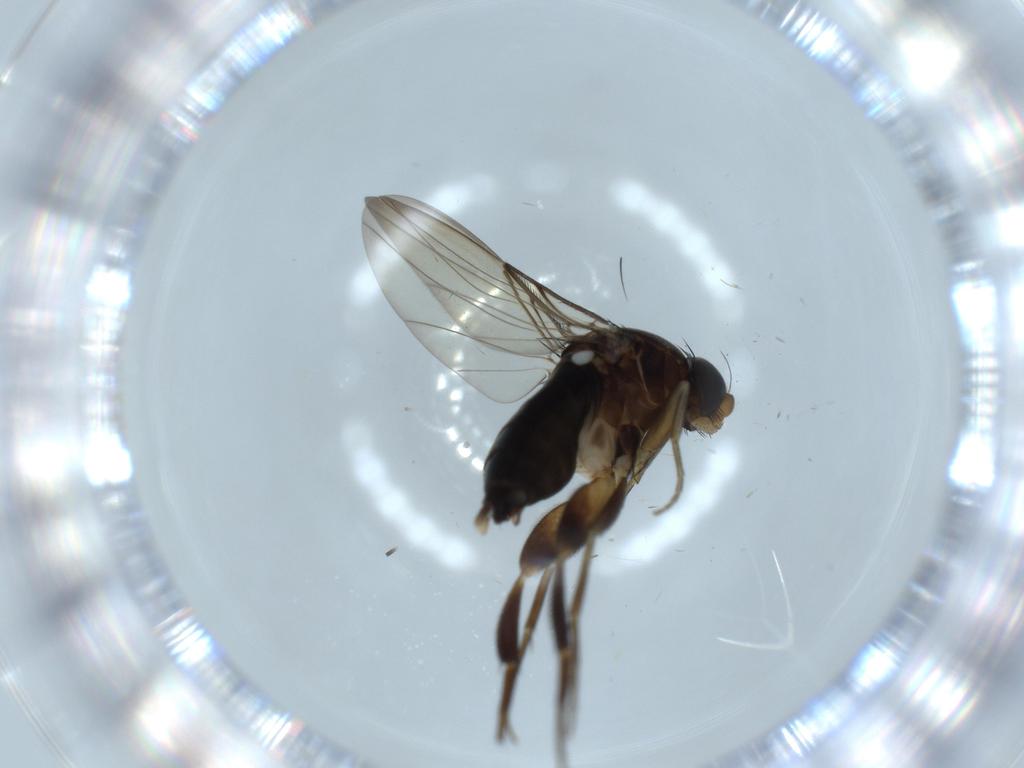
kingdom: Animalia
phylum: Arthropoda
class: Insecta
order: Diptera
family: Phoridae
